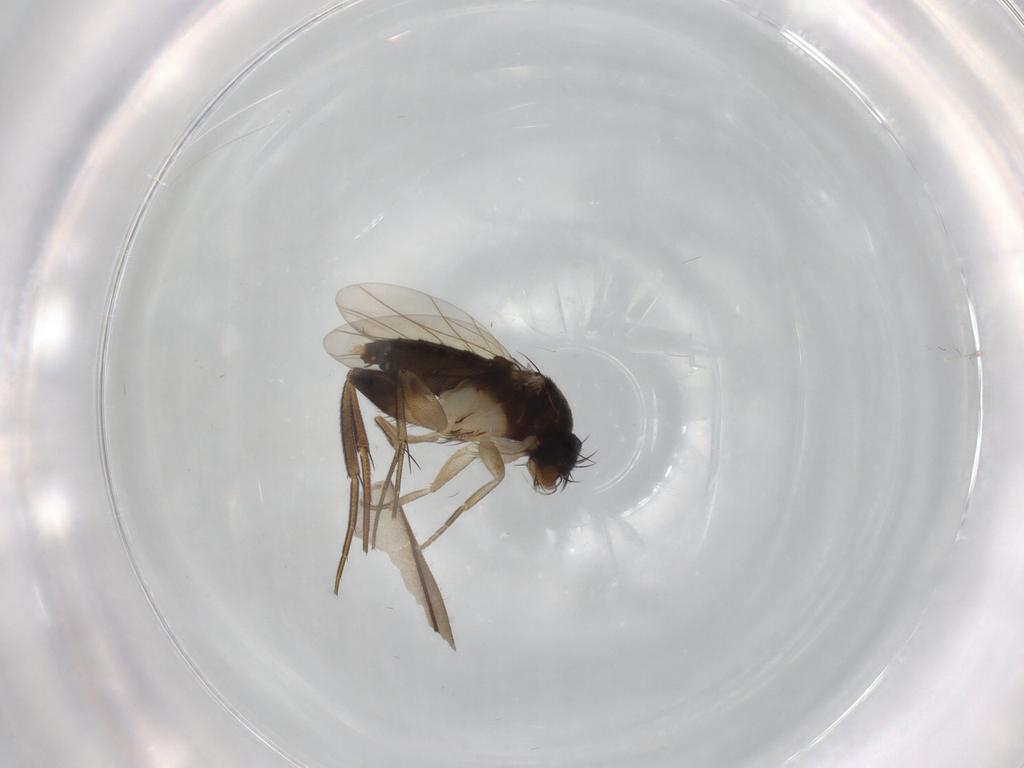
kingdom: Animalia
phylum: Arthropoda
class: Insecta
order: Diptera
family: Phoridae
